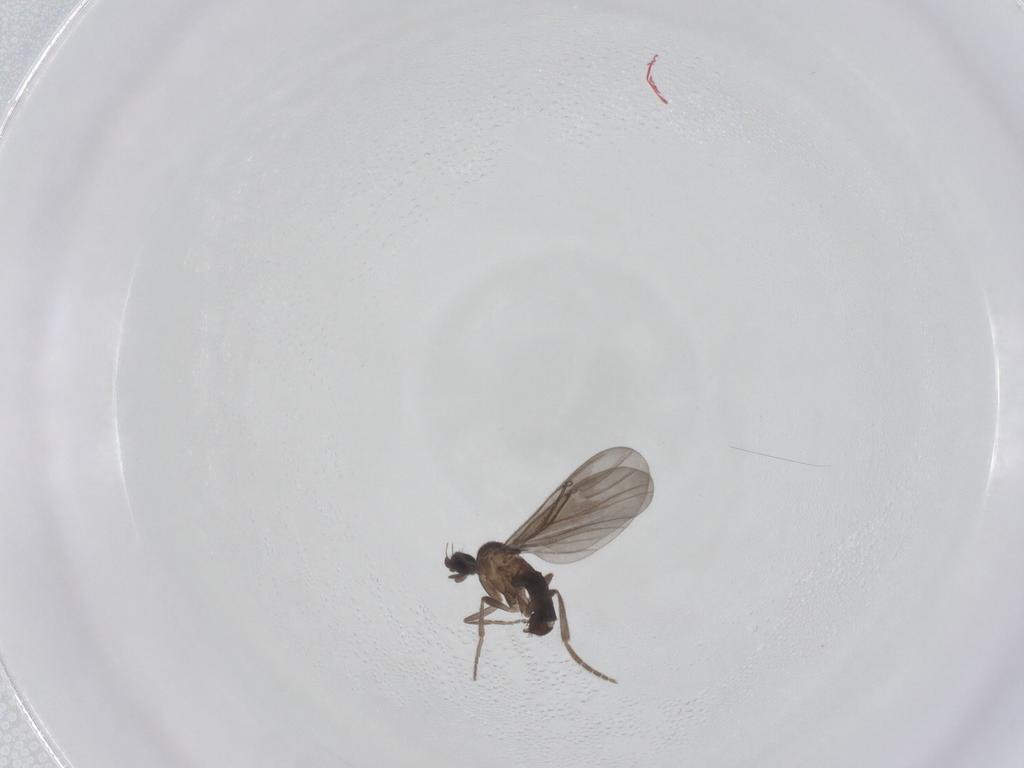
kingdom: Animalia
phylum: Arthropoda
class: Insecta
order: Diptera
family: Phoridae
